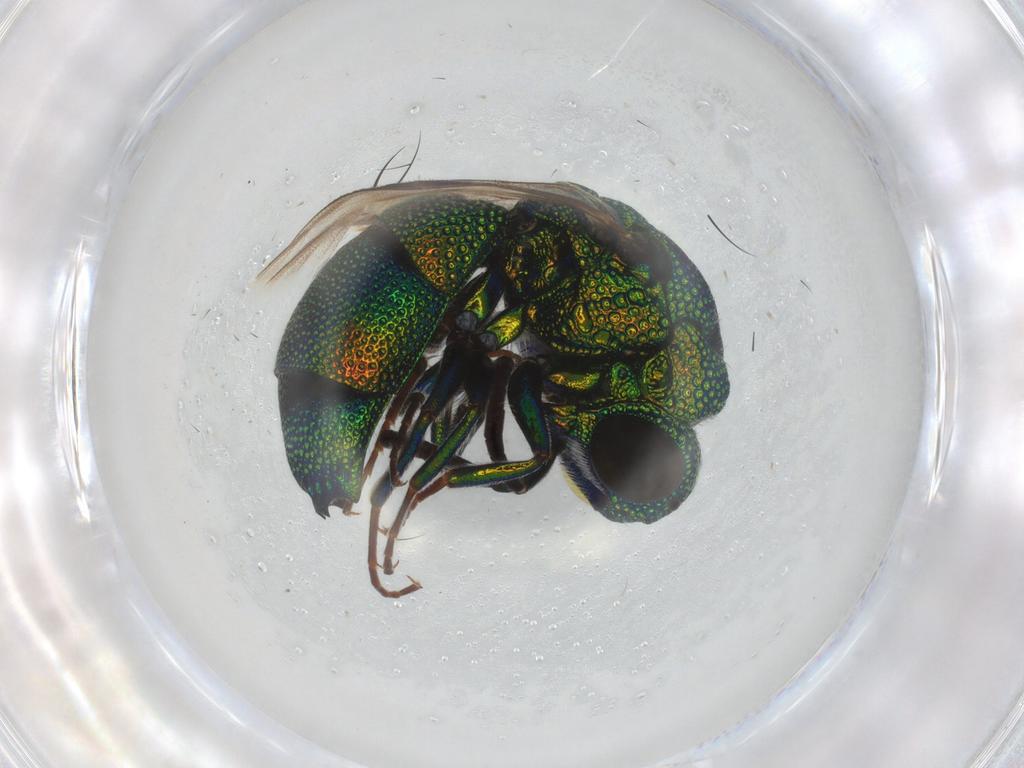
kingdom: Animalia
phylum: Arthropoda
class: Insecta
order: Hymenoptera
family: Chrysididae
